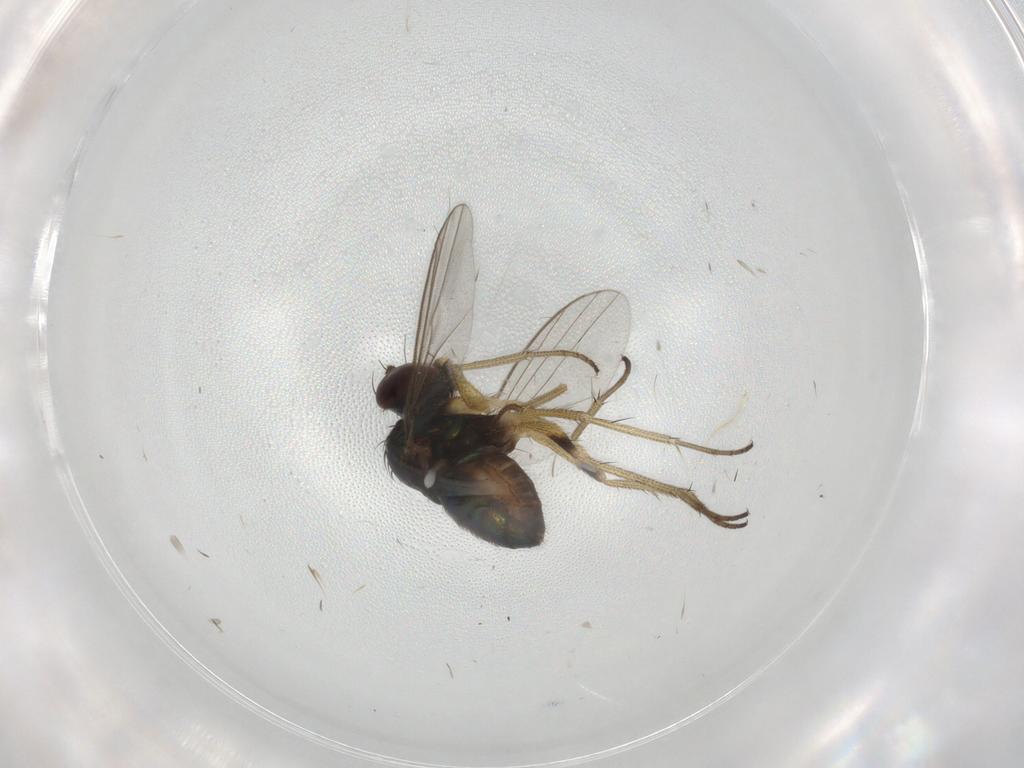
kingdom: Animalia
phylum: Arthropoda
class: Insecta
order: Diptera
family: Dolichopodidae
